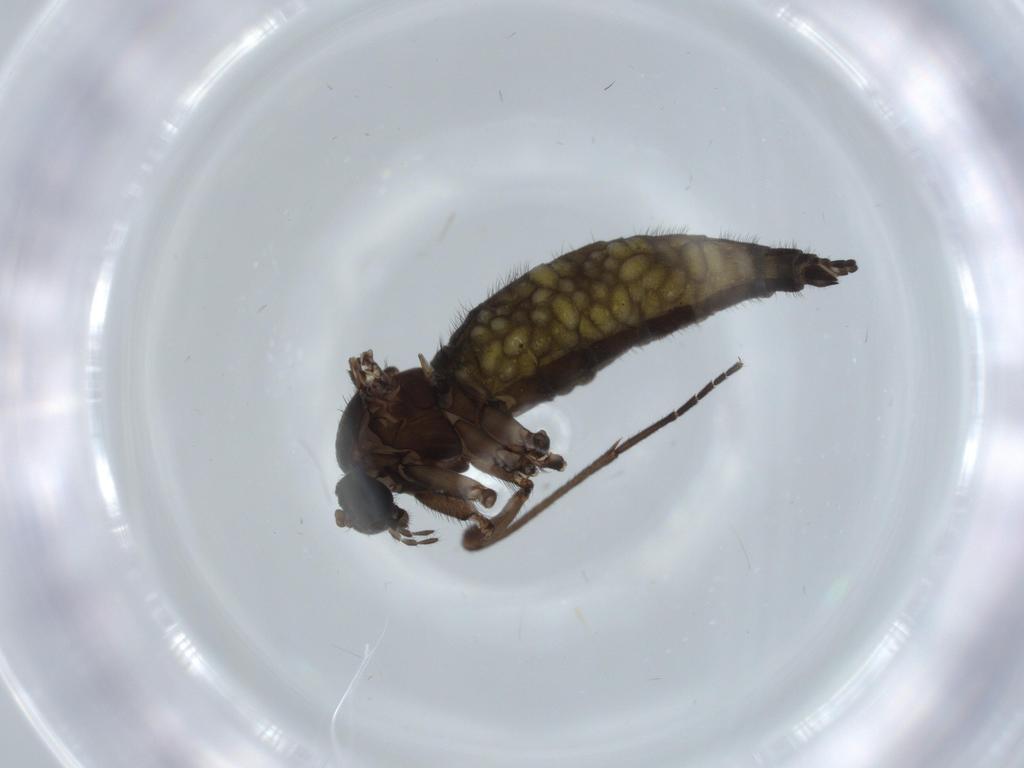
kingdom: Animalia
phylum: Arthropoda
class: Insecta
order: Diptera
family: Sciaridae
